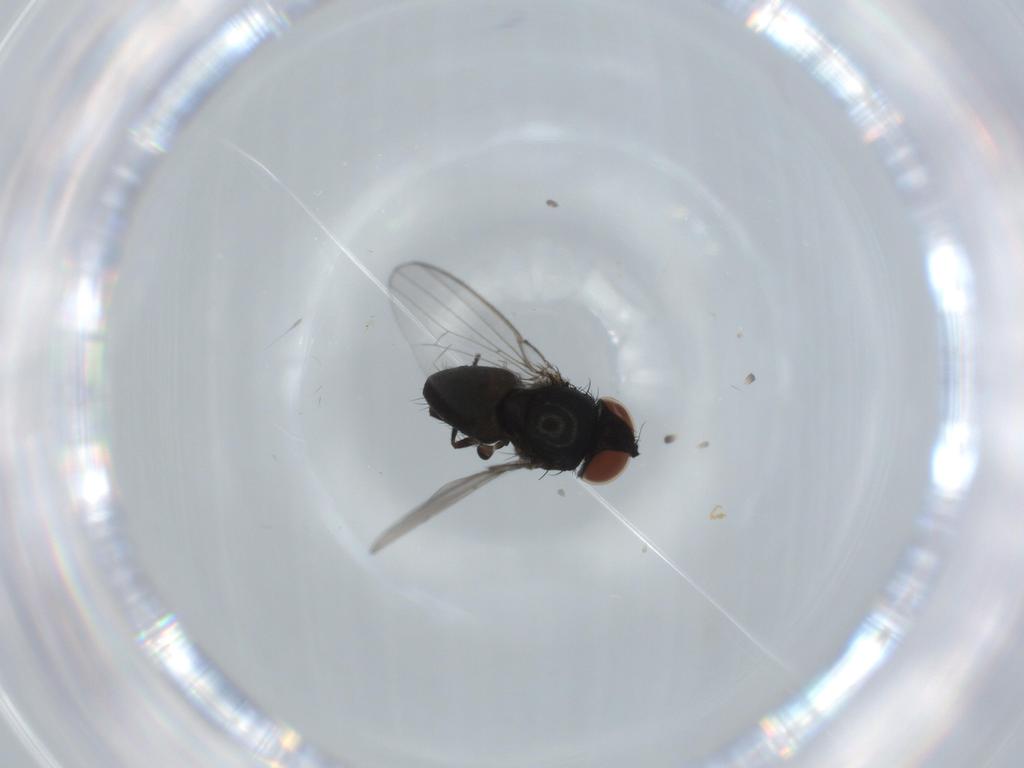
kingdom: Animalia
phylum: Arthropoda
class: Insecta
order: Diptera
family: Milichiidae
